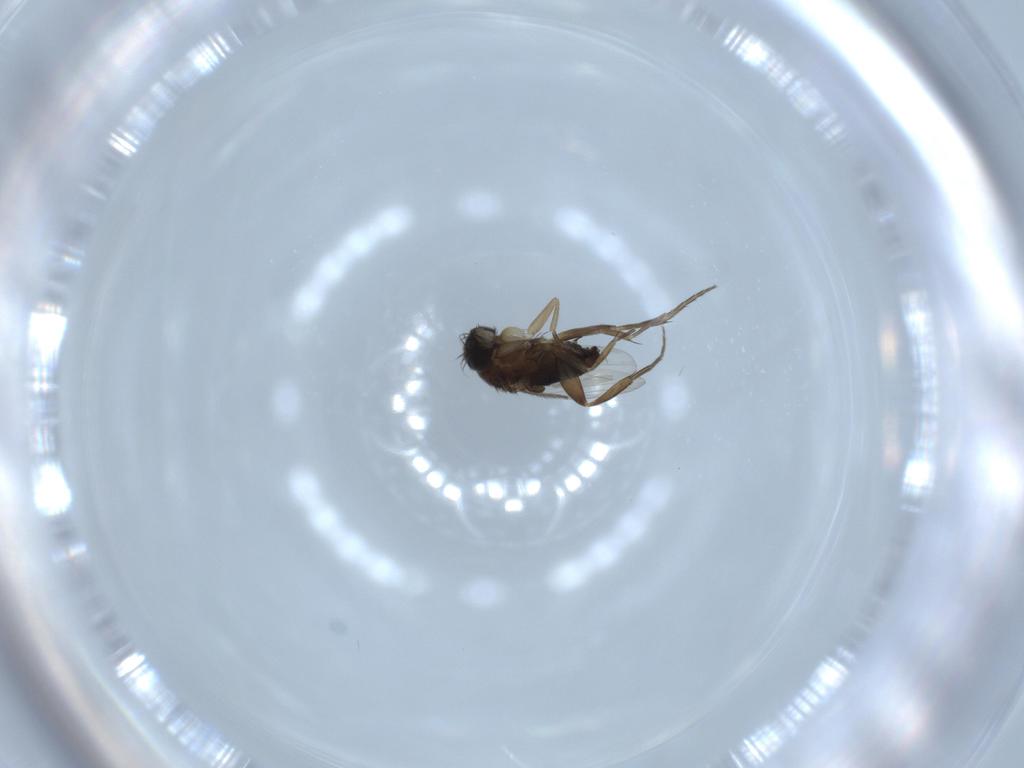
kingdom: Animalia
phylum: Arthropoda
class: Insecta
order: Diptera
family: Phoridae
